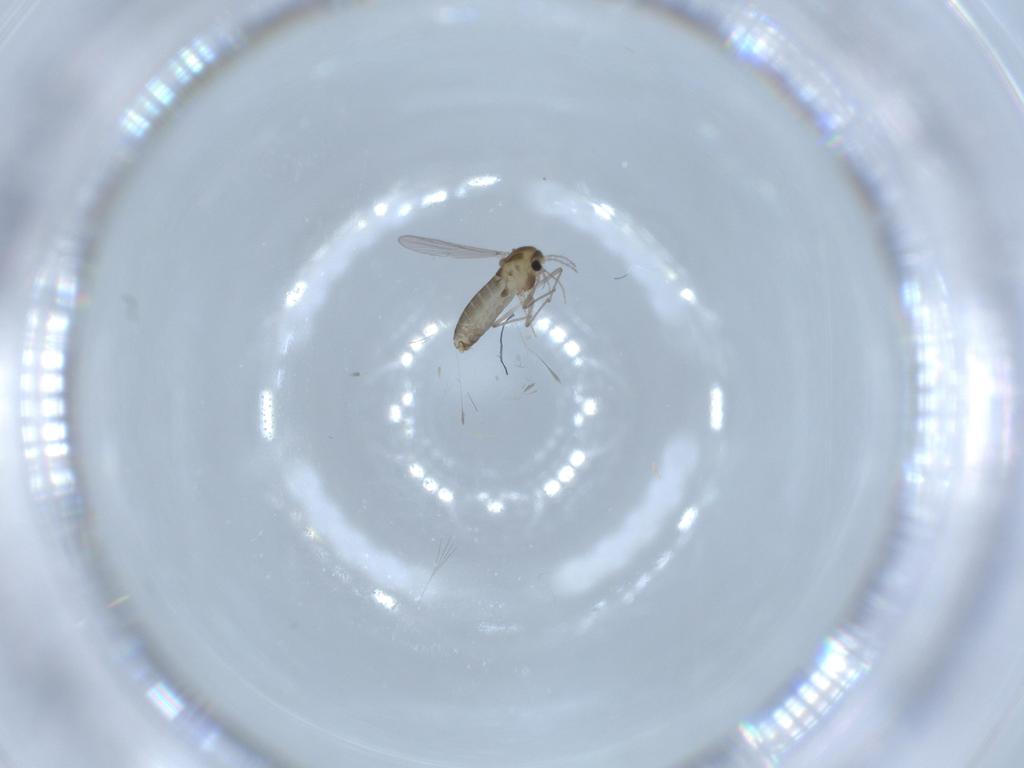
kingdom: Animalia
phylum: Arthropoda
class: Insecta
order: Diptera
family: Chironomidae
